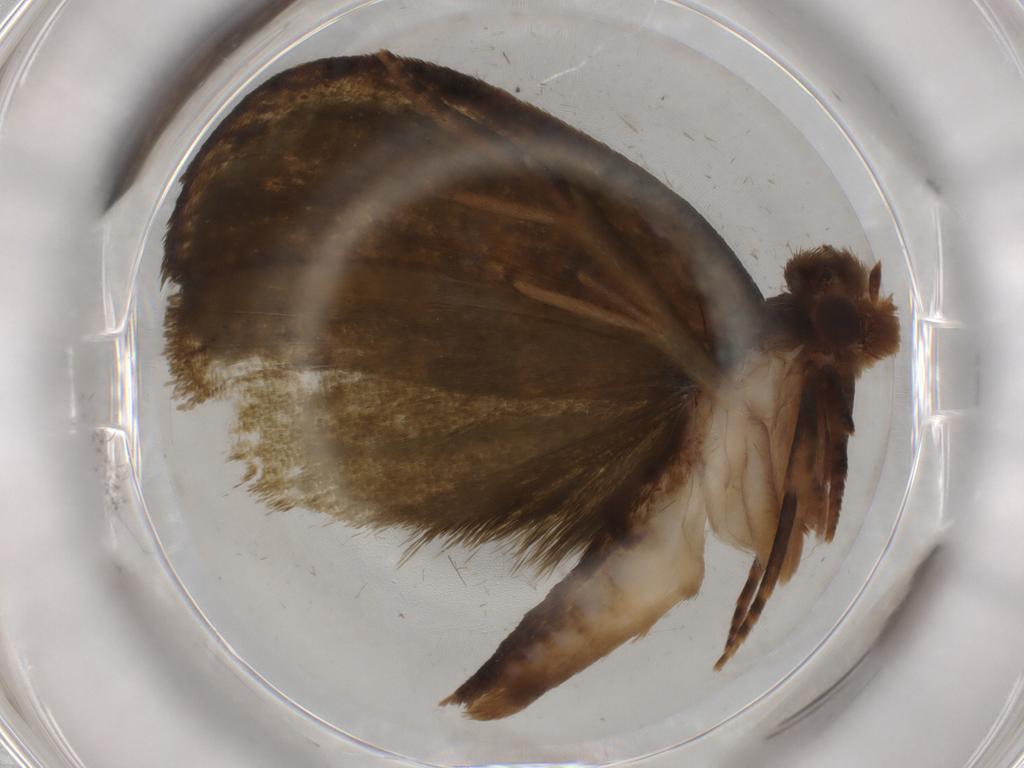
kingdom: Animalia
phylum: Arthropoda
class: Insecta
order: Lepidoptera
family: Geometridae
